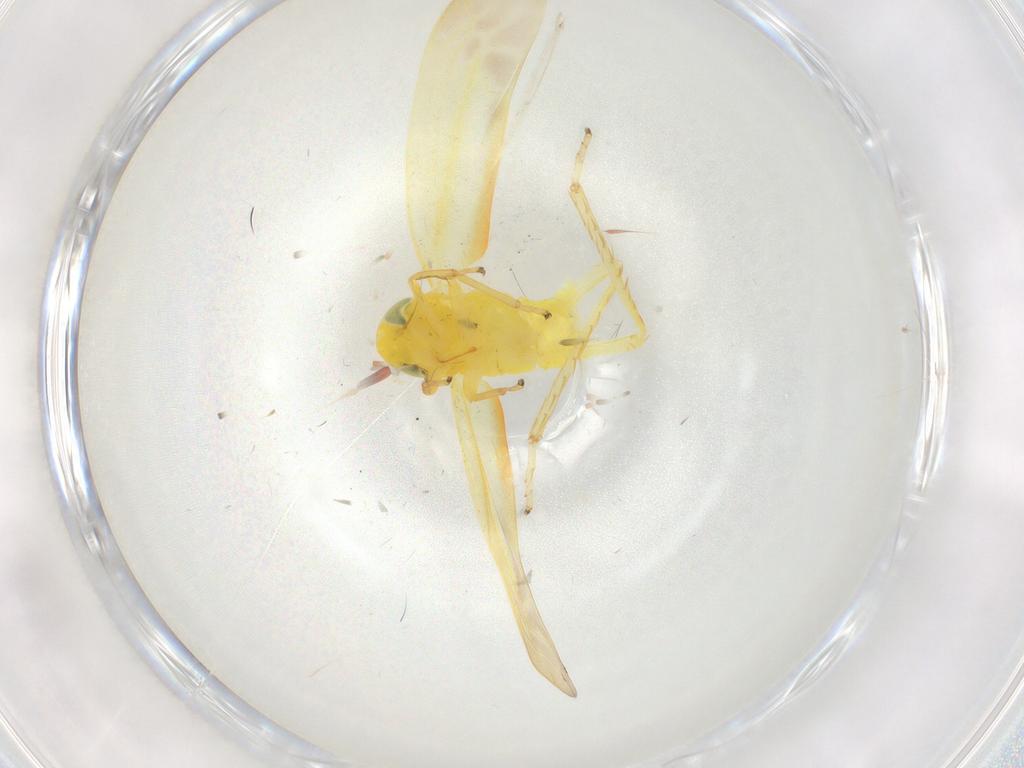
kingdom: Animalia
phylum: Arthropoda
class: Insecta
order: Hemiptera
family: Cicadellidae
